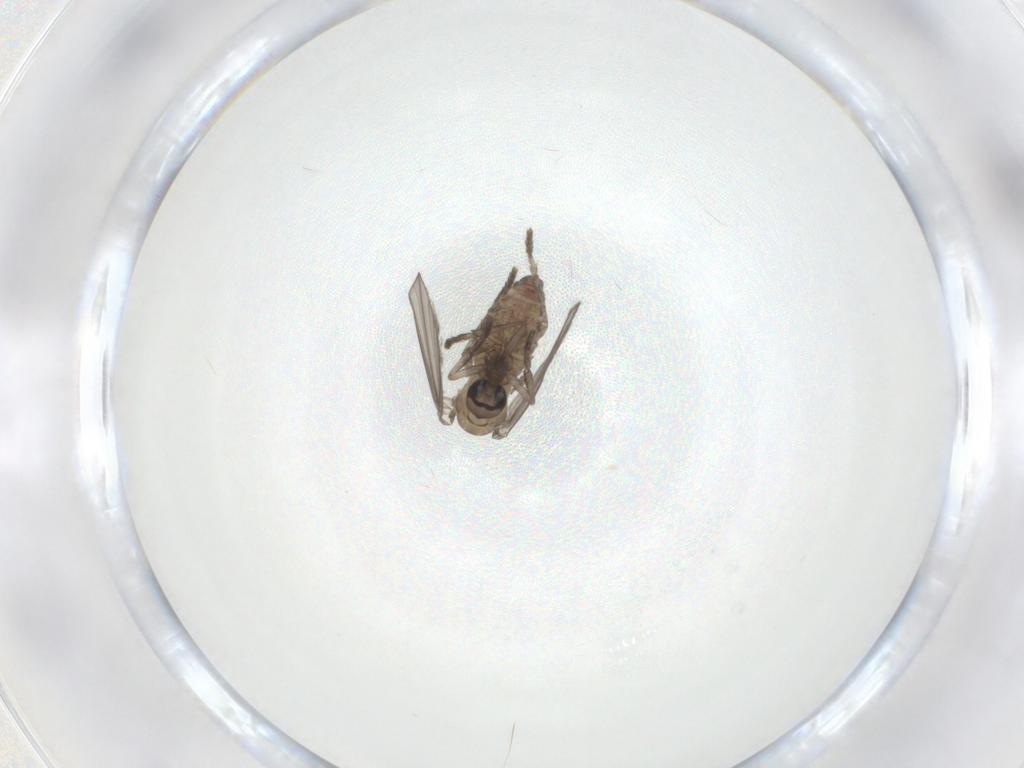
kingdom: Animalia
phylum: Arthropoda
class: Insecta
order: Diptera
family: Psychodidae
